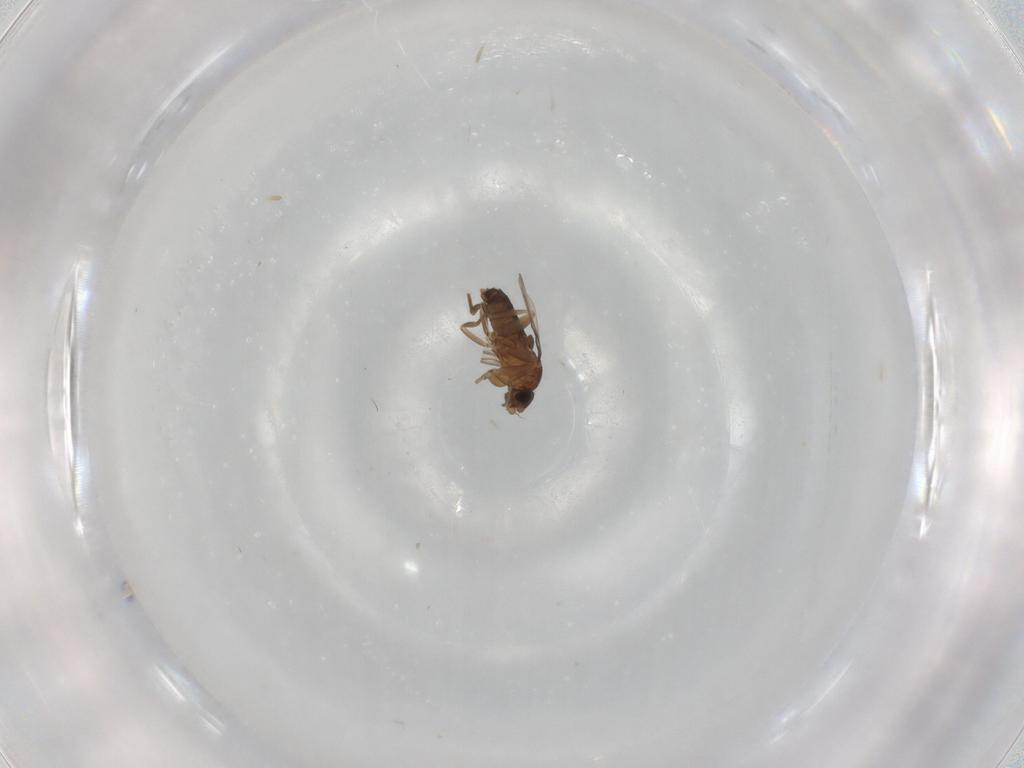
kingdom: Animalia
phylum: Arthropoda
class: Insecta
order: Diptera
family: Phoridae
